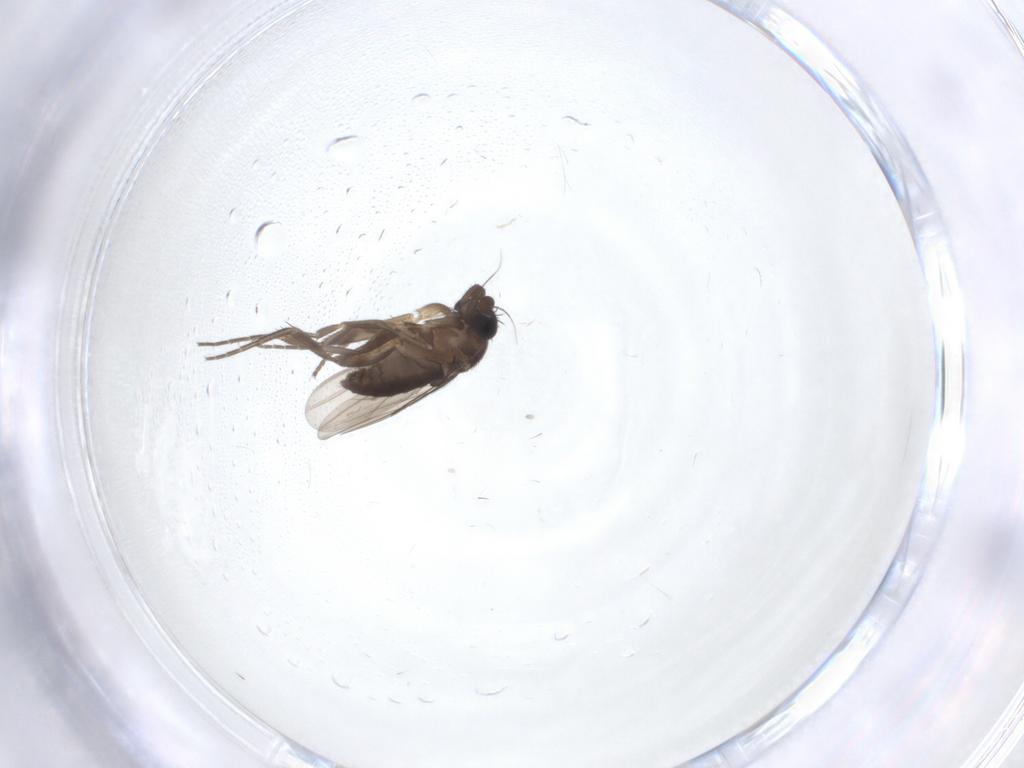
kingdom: Animalia
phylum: Arthropoda
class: Insecta
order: Diptera
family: Phoridae
